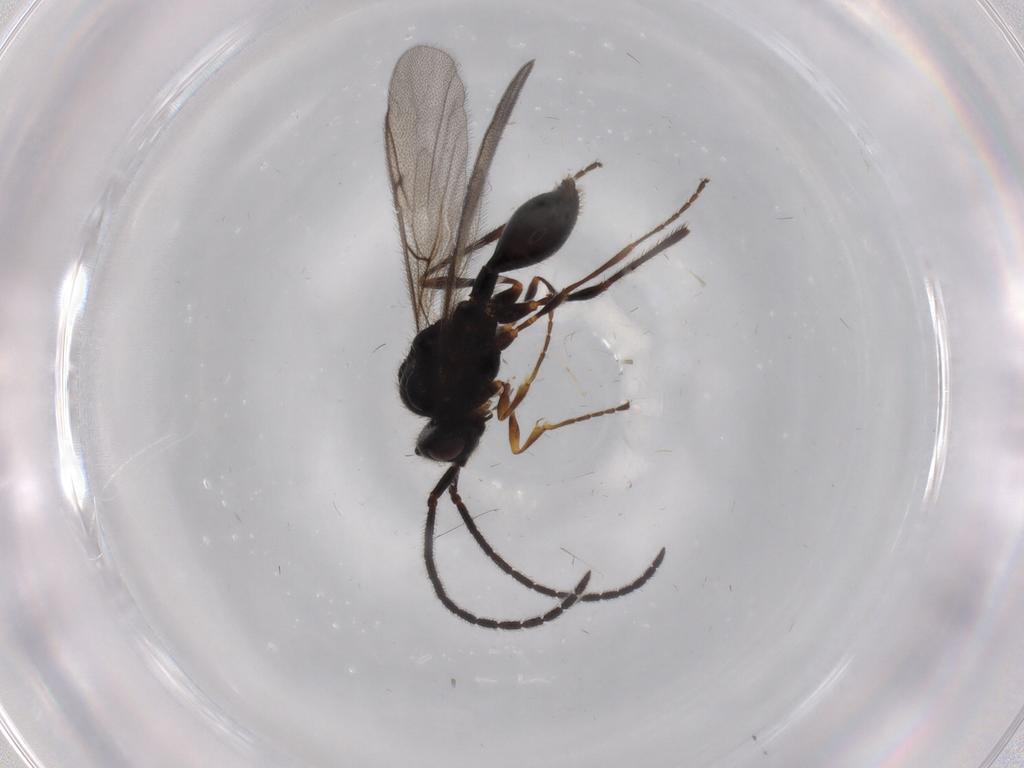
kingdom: Animalia
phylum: Arthropoda
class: Insecta
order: Hymenoptera
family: Diapriidae
